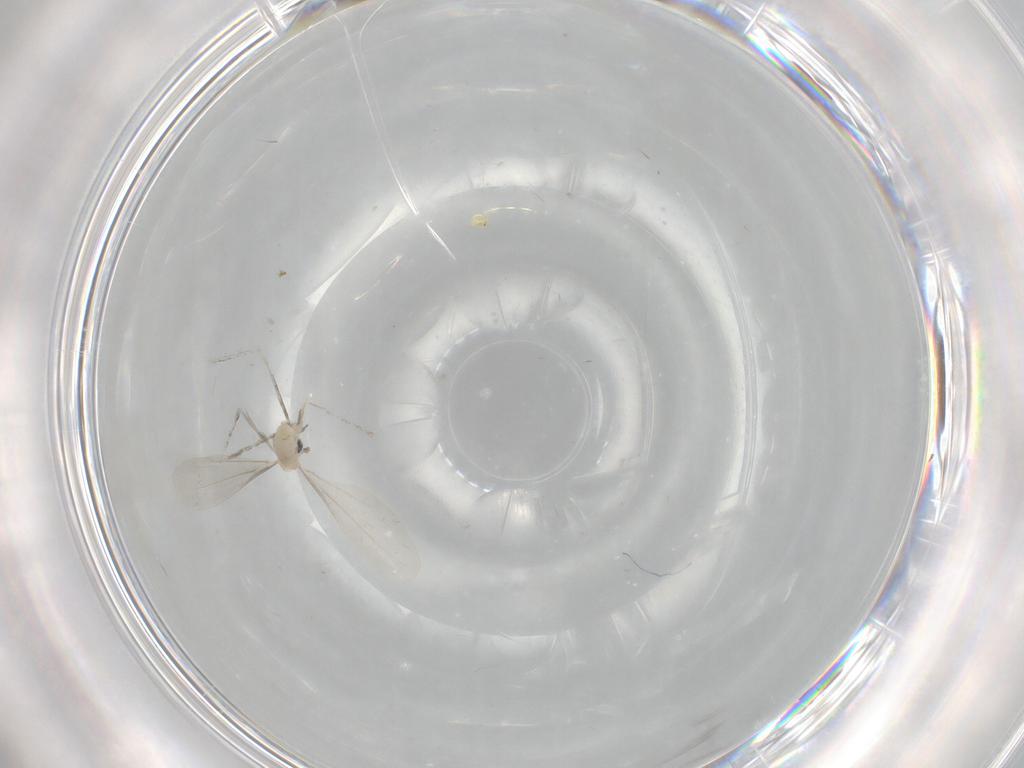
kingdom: Animalia
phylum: Arthropoda
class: Insecta
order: Diptera
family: Cecidomyiidae
